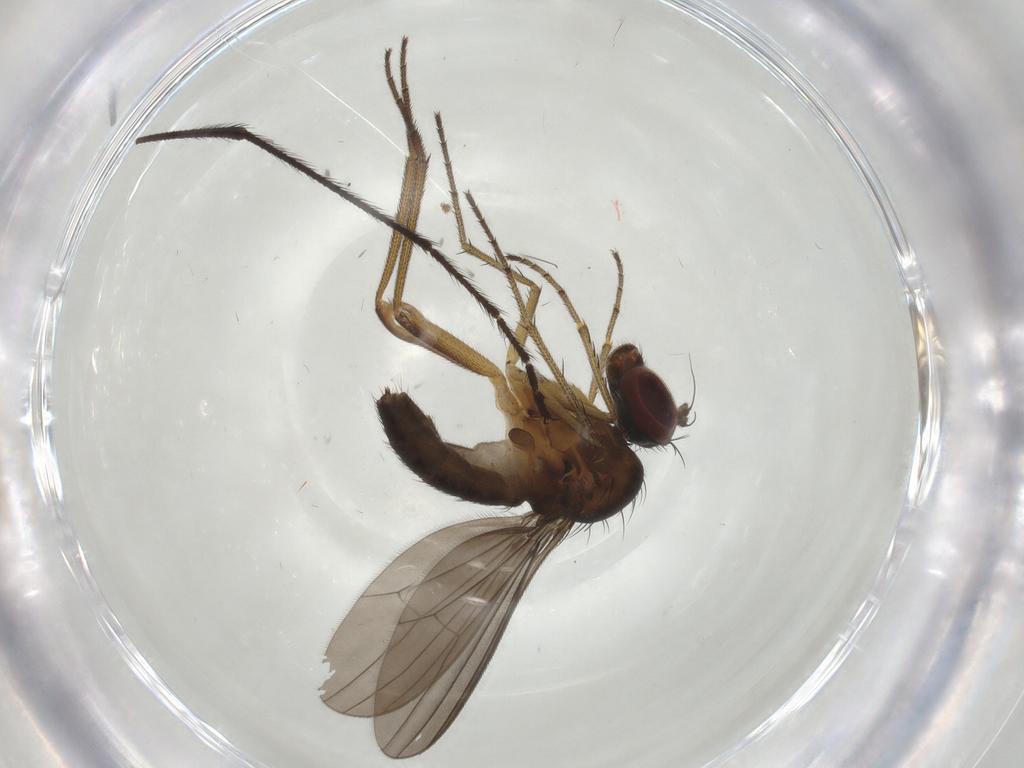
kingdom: Animalia
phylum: Arthropoda
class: Insecta
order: Diptera
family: Dolichopodidae
